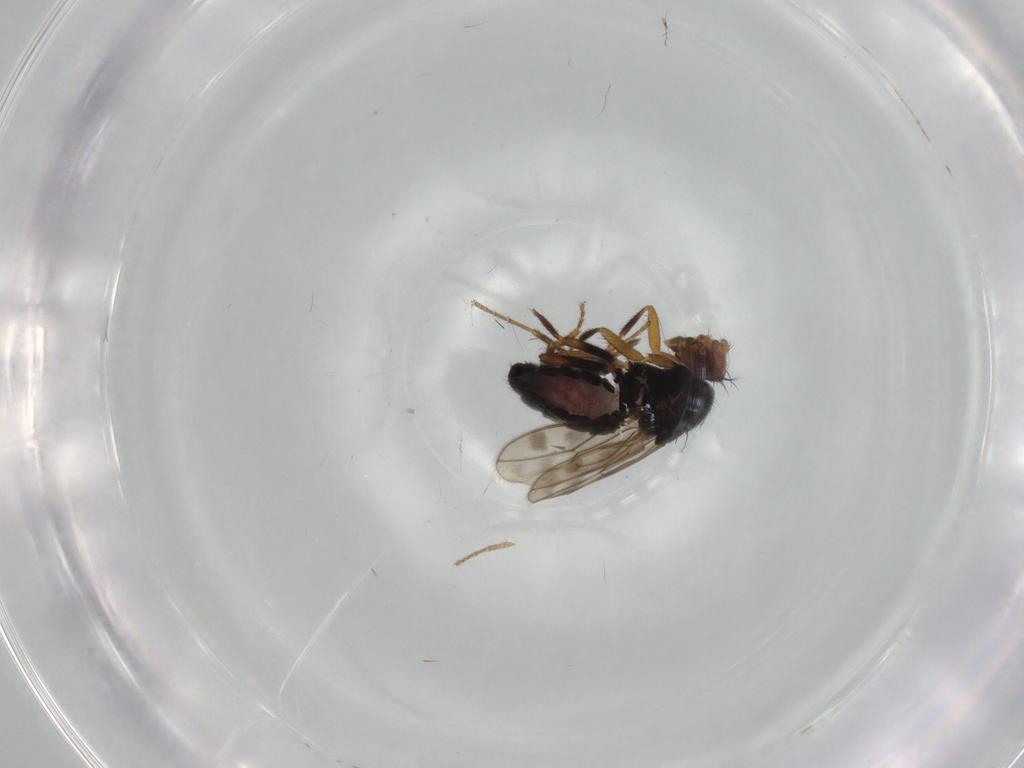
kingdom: Animalia
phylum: Arthropoda
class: Insecta
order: Diptera
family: Sphaeroceridae
